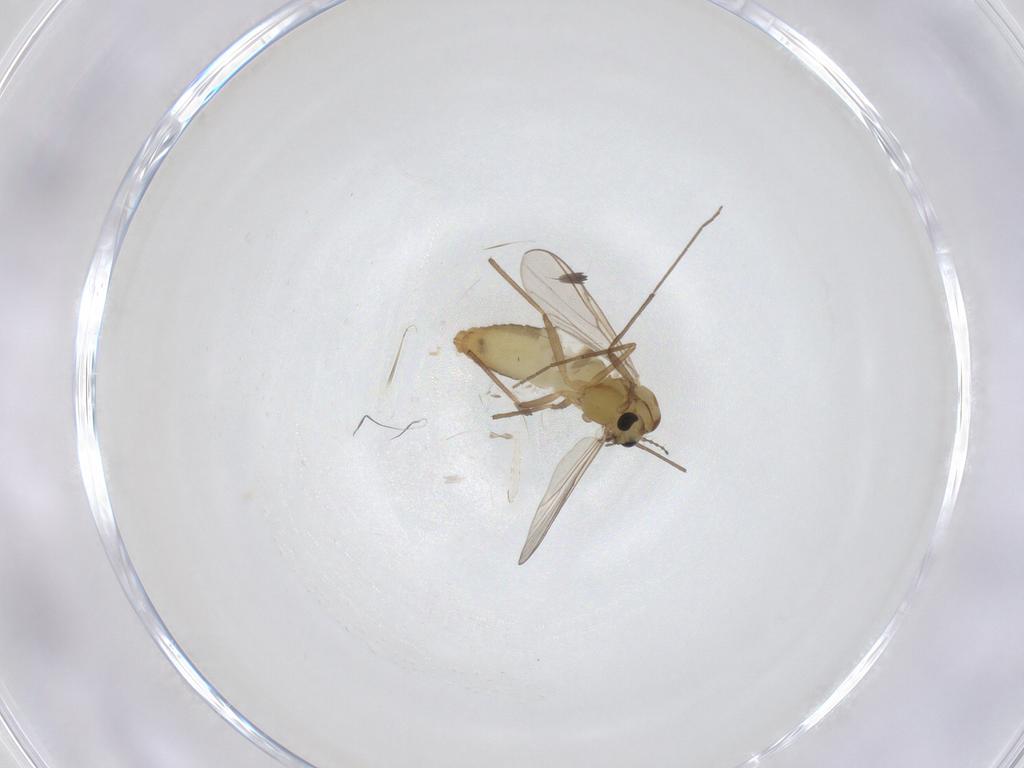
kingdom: Animalia
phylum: Arthropoda
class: Insecta
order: Diptera
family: Chironomidae
